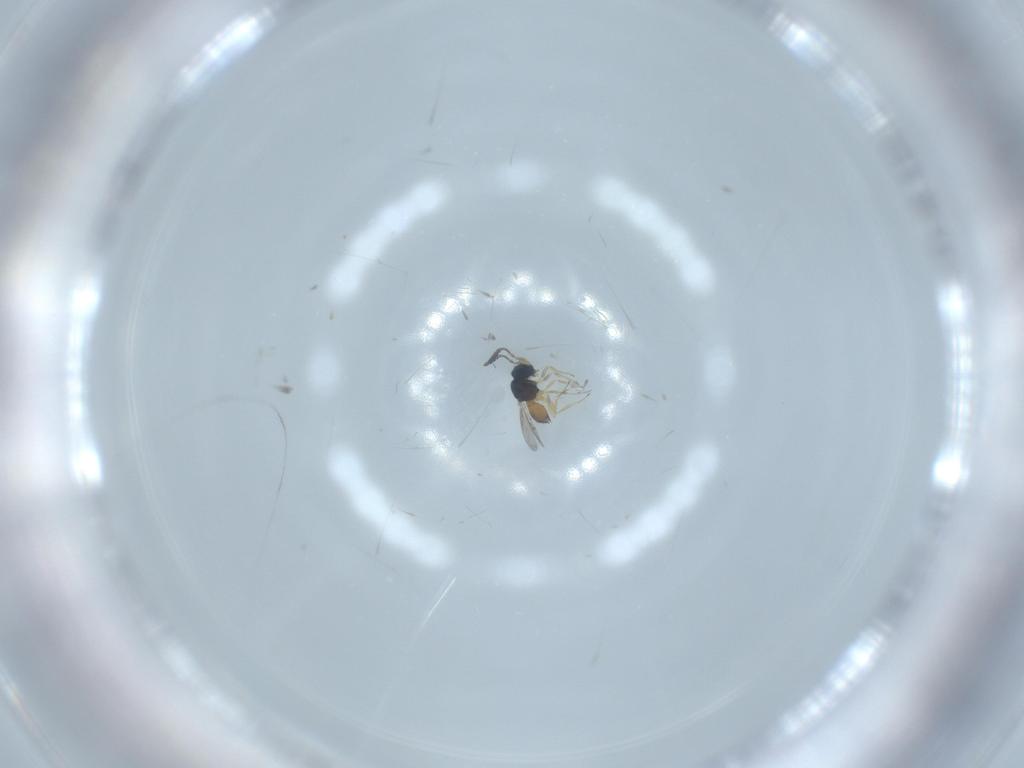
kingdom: Animalia
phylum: Arthropoda
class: Insecta
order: Hymenoptera
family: Scelionidae
